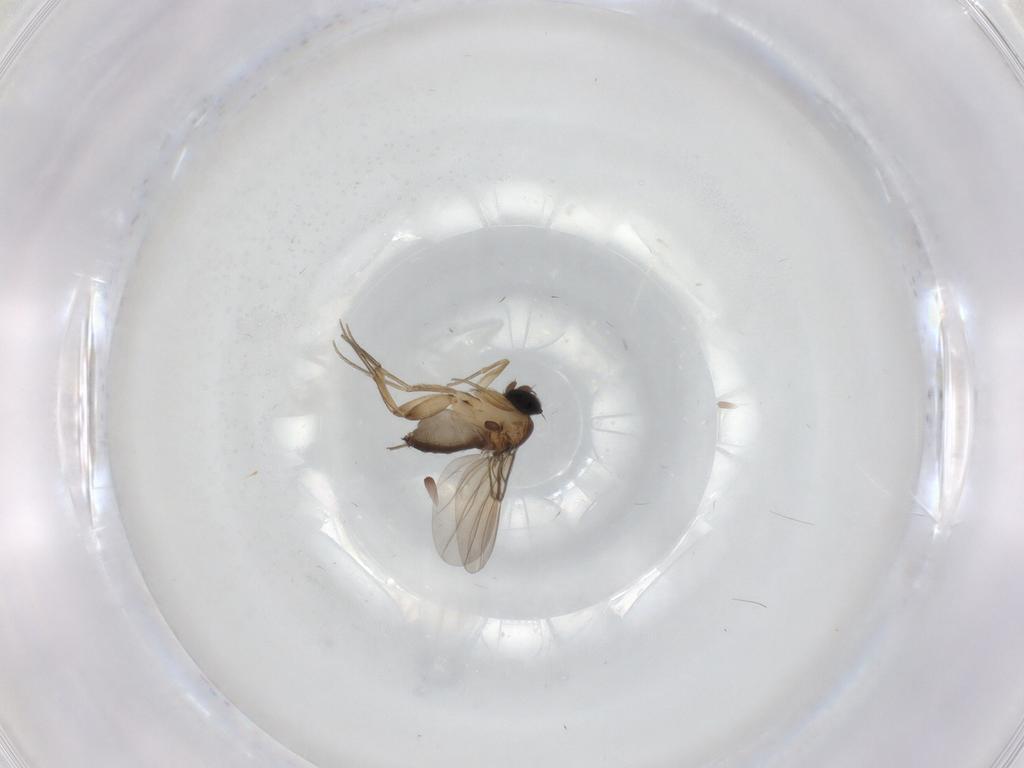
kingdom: Animalia
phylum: Arthropoda
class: Insecta
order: Diptera
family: Phoridae
